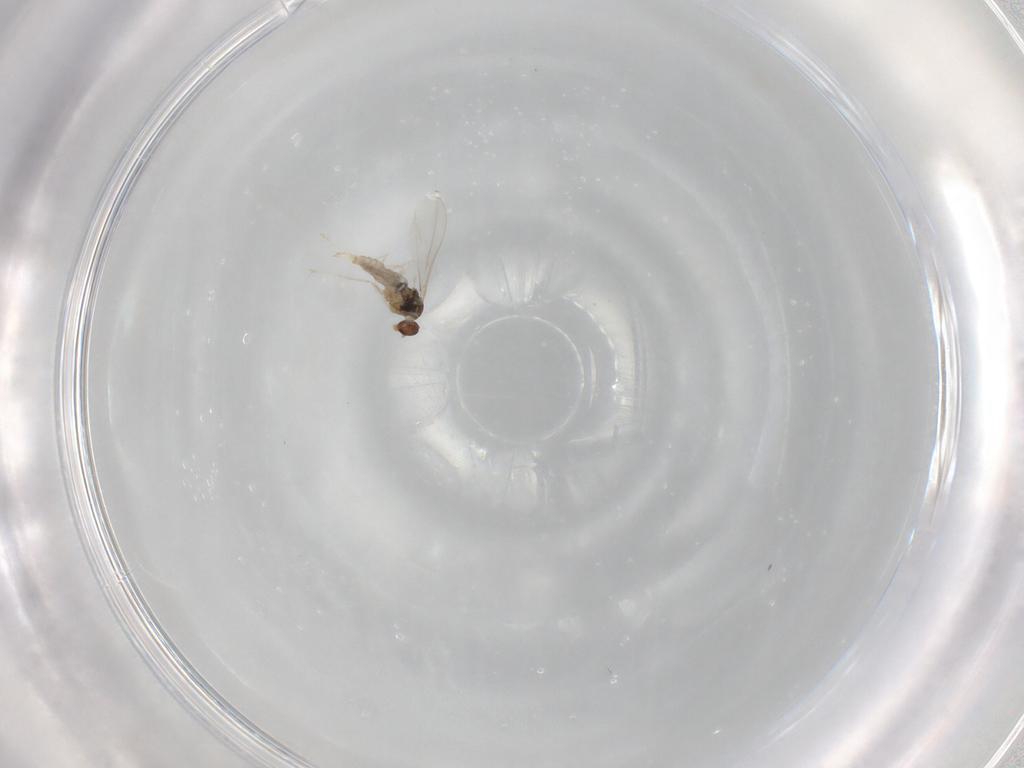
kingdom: Animalia
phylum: Arthropoda
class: Insecta
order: Diptera
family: Cecidomyiidae
